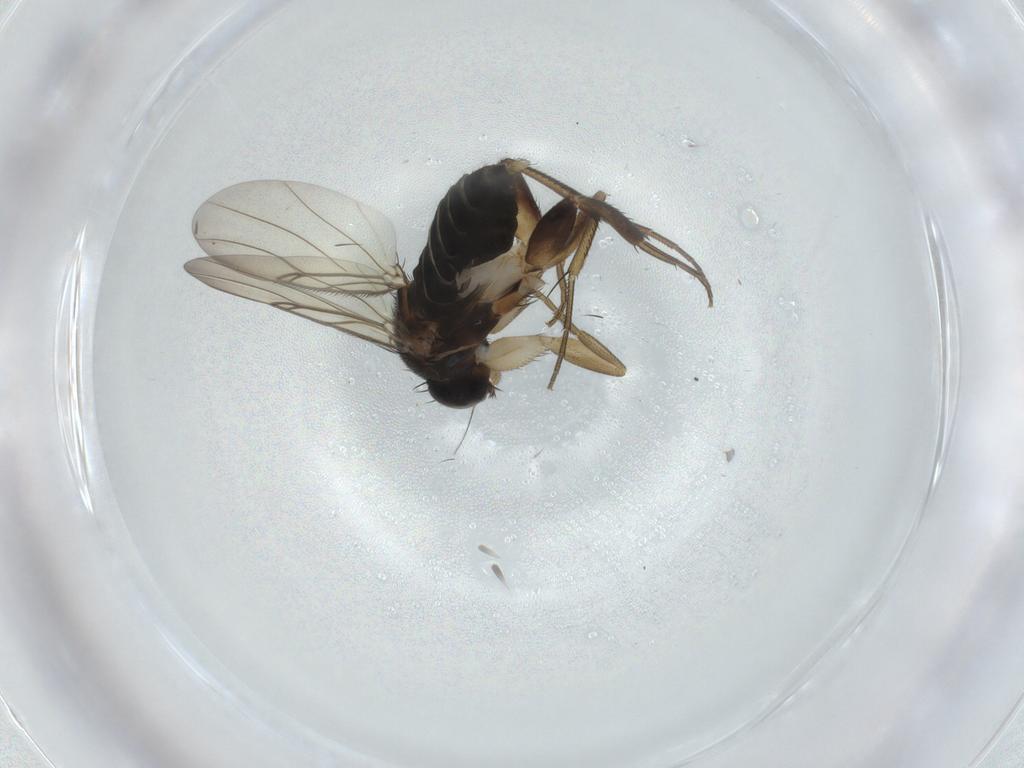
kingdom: Animalia
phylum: Arthropoda
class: Insecta
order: Diptera
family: Phoridae
